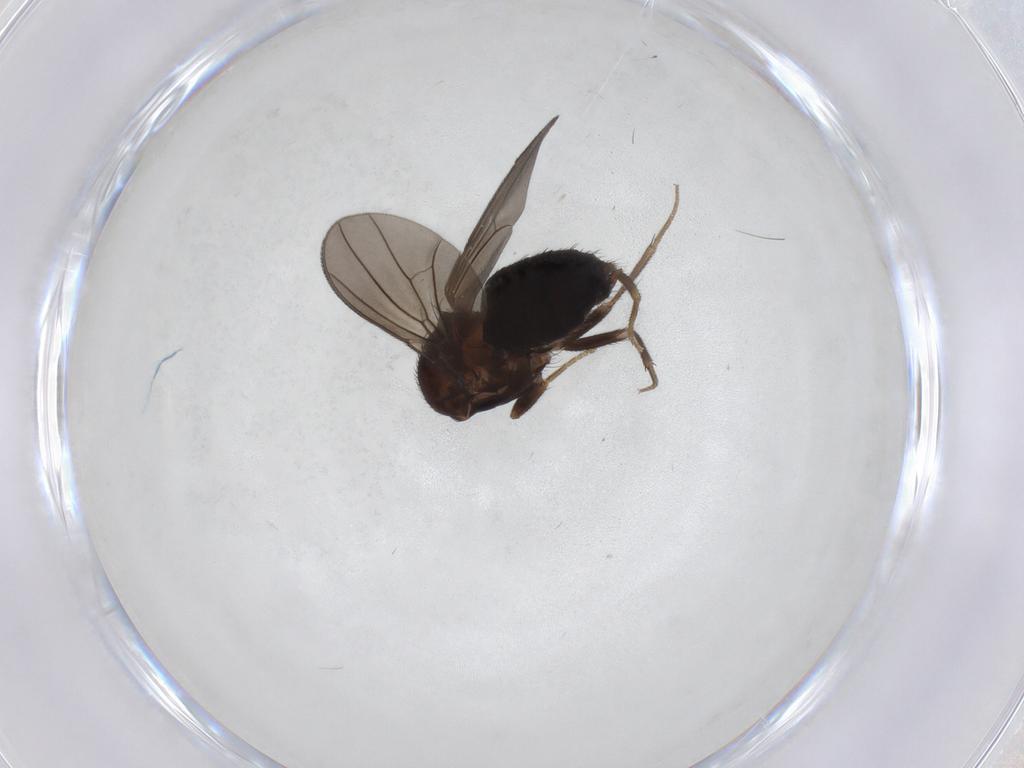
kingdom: Animalia
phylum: Arthropoda
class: Insecta
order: Diptera
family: Drosophilidae
